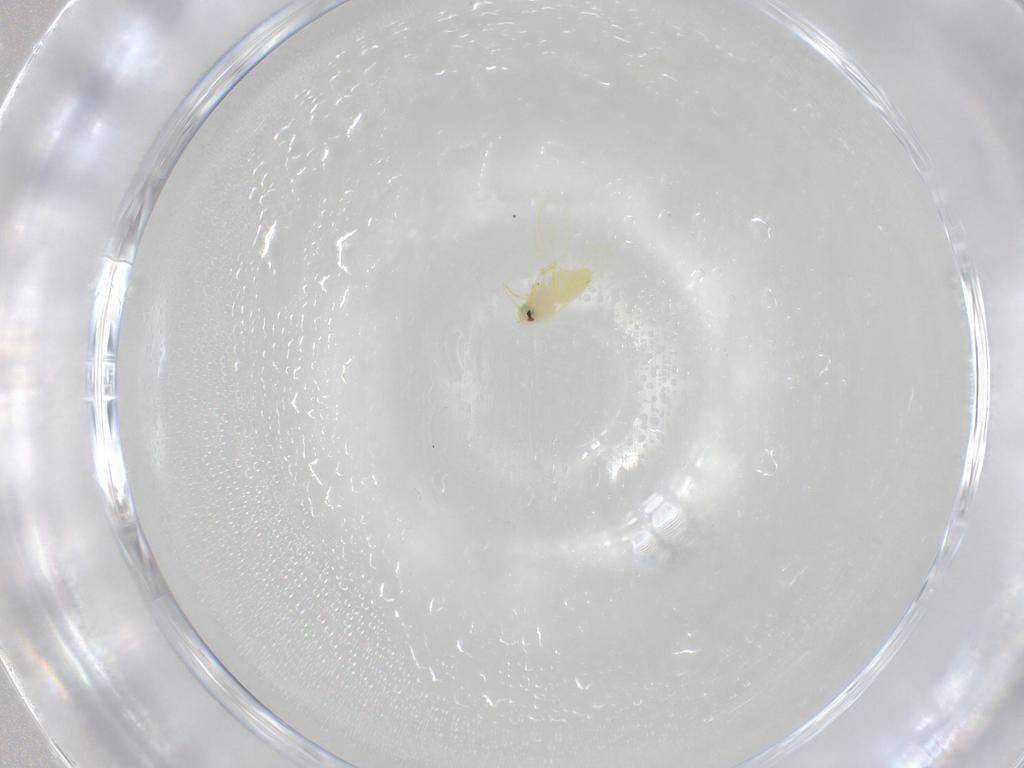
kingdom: Animalia
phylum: Arthropoda
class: Insecta
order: Hemiptera
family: Aleyrodidae
